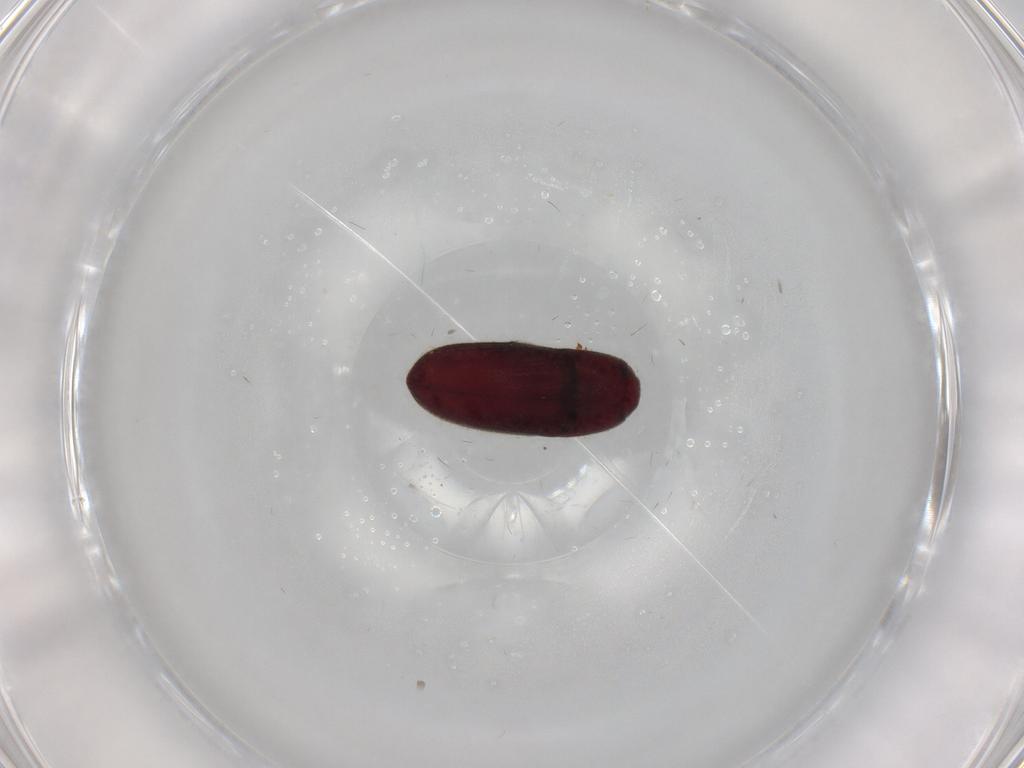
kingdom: Animalia
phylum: Arthropoda
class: Insecta
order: Coleoptera
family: Throscidae
